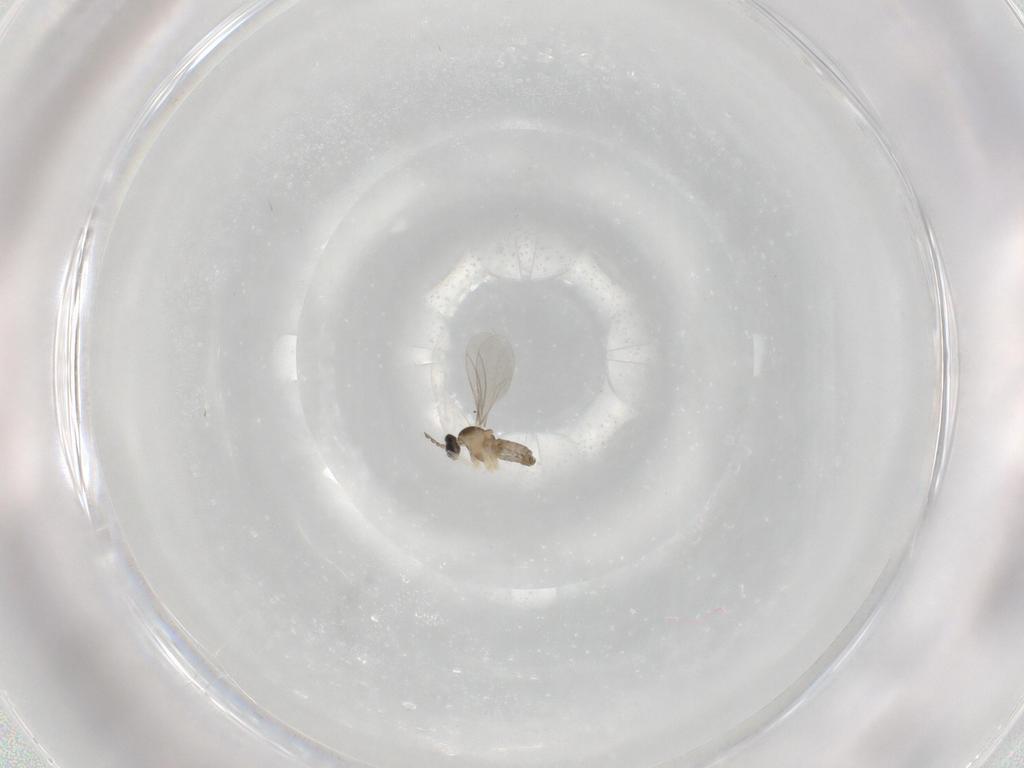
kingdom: Animalia
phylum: Arthropoda
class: Insecta
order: Diptera
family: Cecidomyiidae
